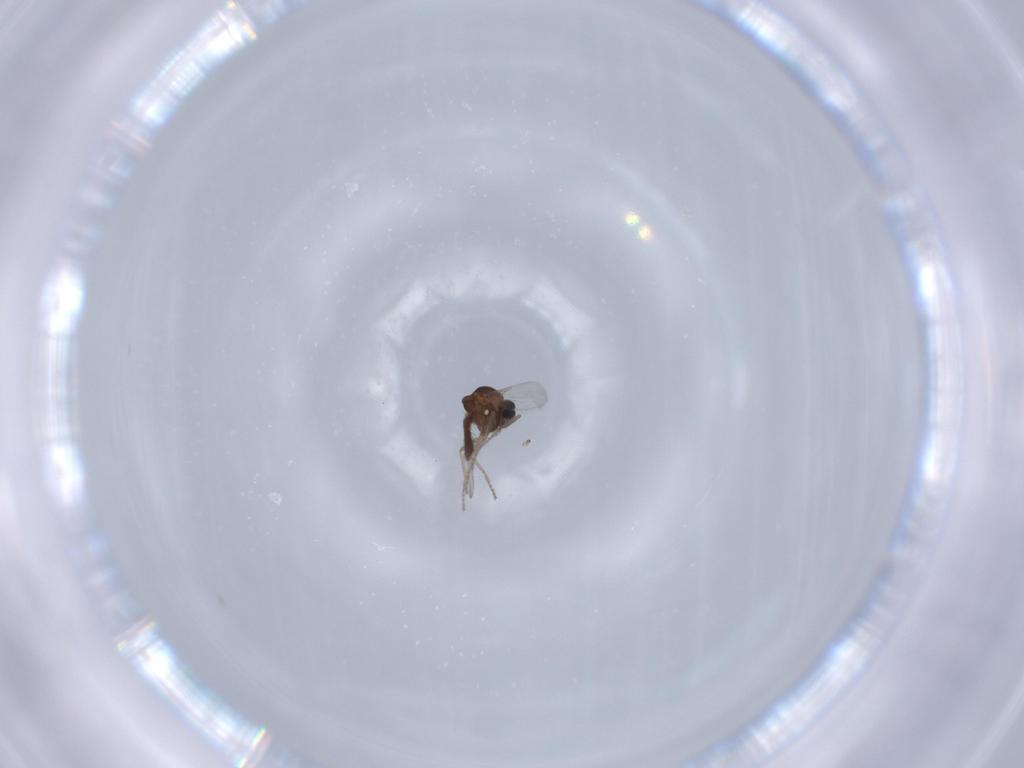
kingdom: Animalia
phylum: Arthropoda
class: Insecta
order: Diptera
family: Ceratopogonidae
